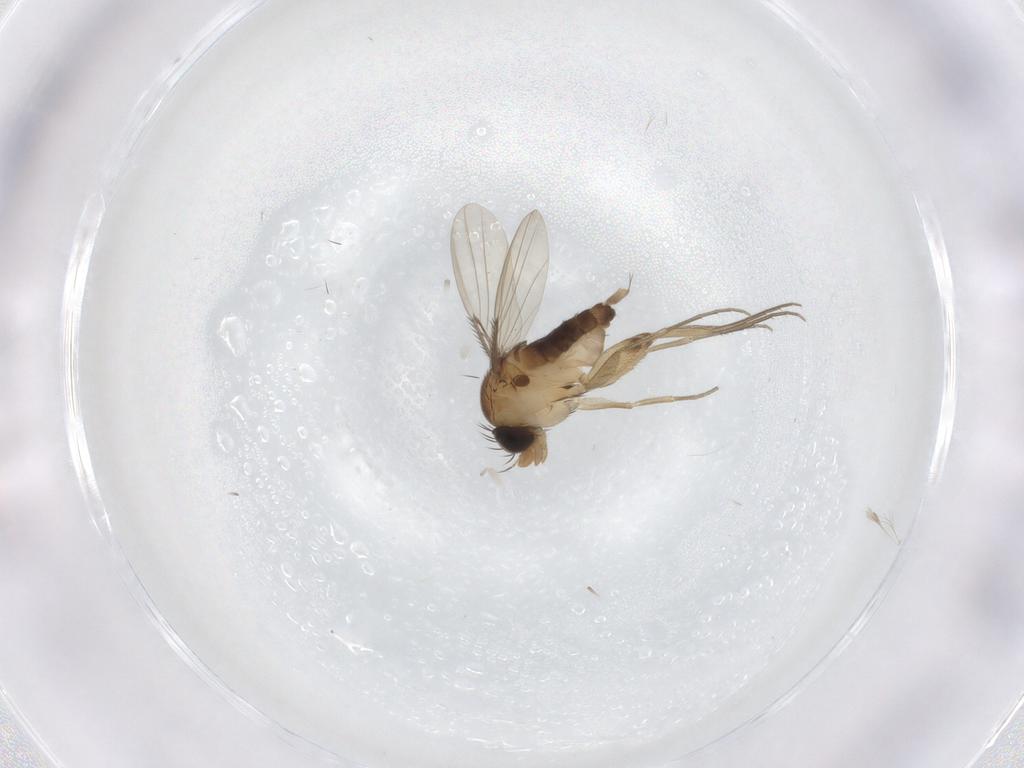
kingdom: Animalia
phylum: Arthropoda
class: Insecta
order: Diptera
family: Phoridae
